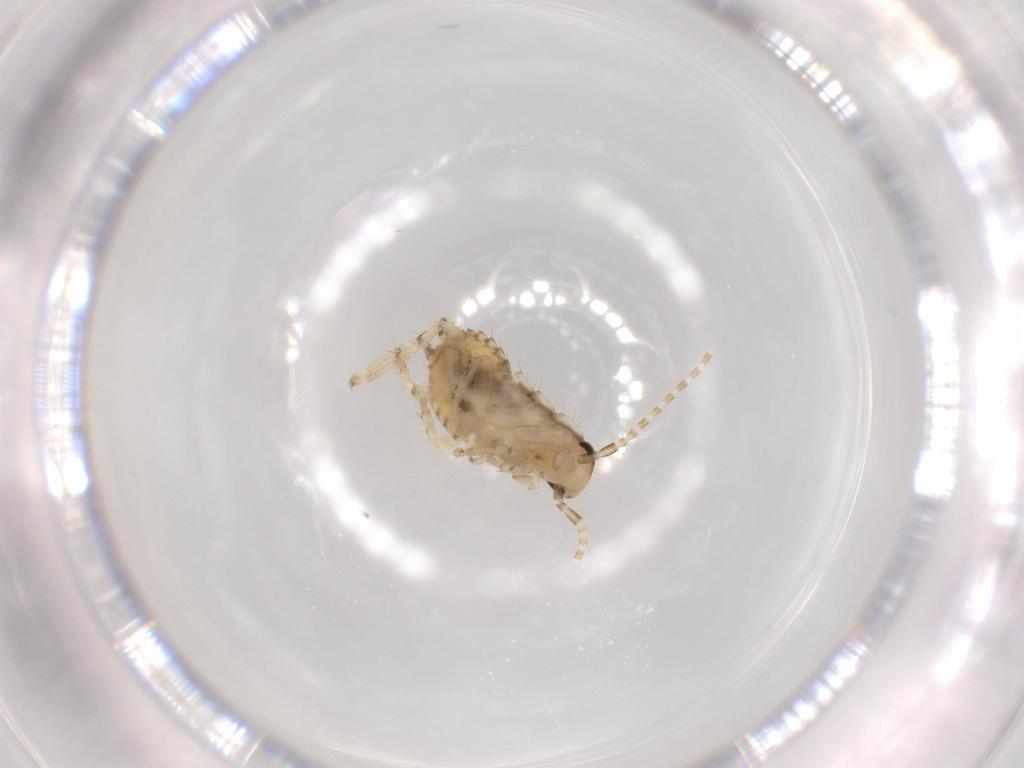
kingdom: Animalia
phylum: Arthropoda
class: Insecta
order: Blattodea
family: Ectobiidae
